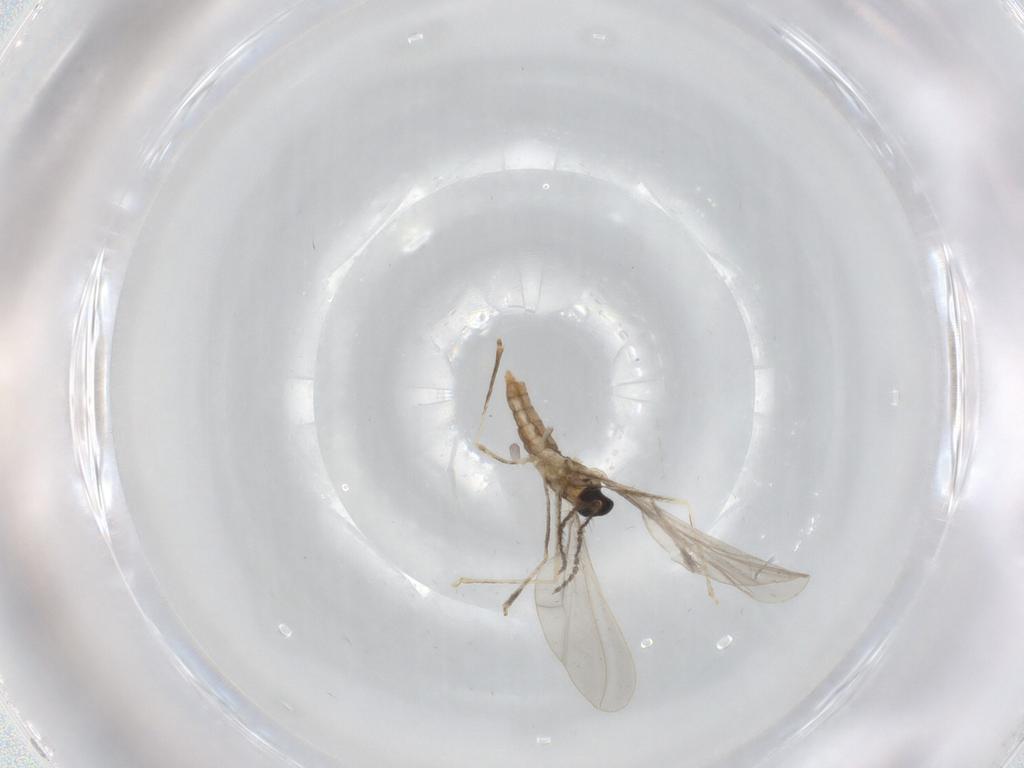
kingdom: Animalia
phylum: Arthropoda
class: Insecta
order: Diptera
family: Cecidomyiidae
